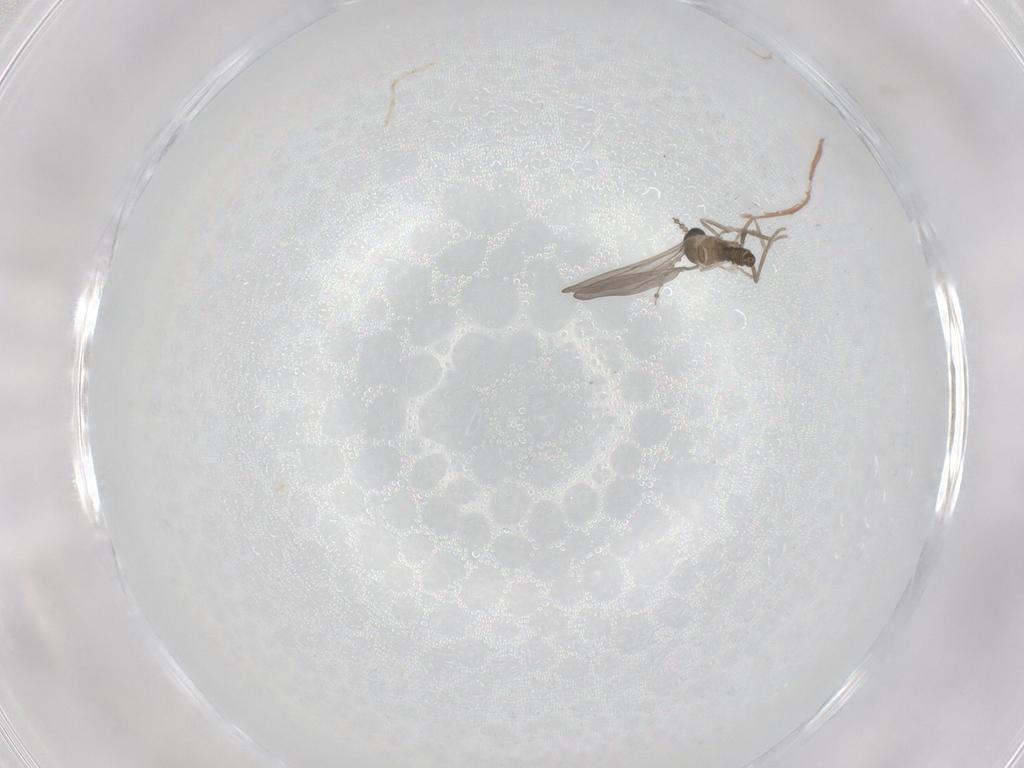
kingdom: Animalia
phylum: Arthropoda
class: Insecta
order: Diptera
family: Cecidomyiidae
